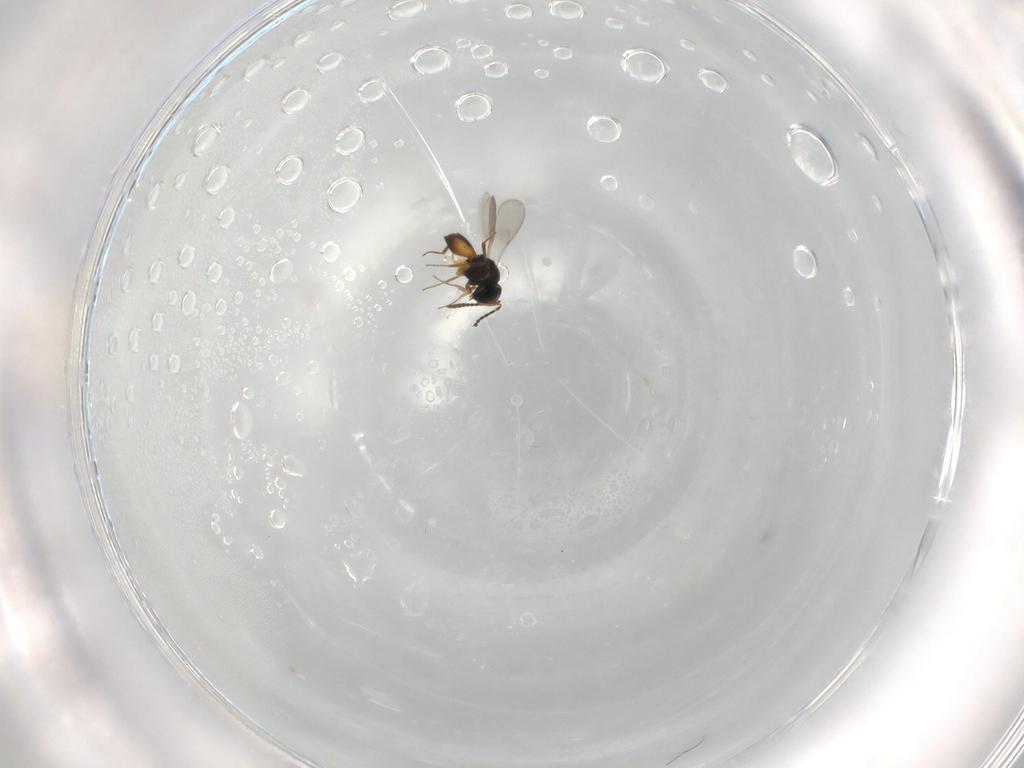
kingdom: Animalia
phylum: Arthropoda
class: Insecta
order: Hymenoptera
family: Scelionidae
